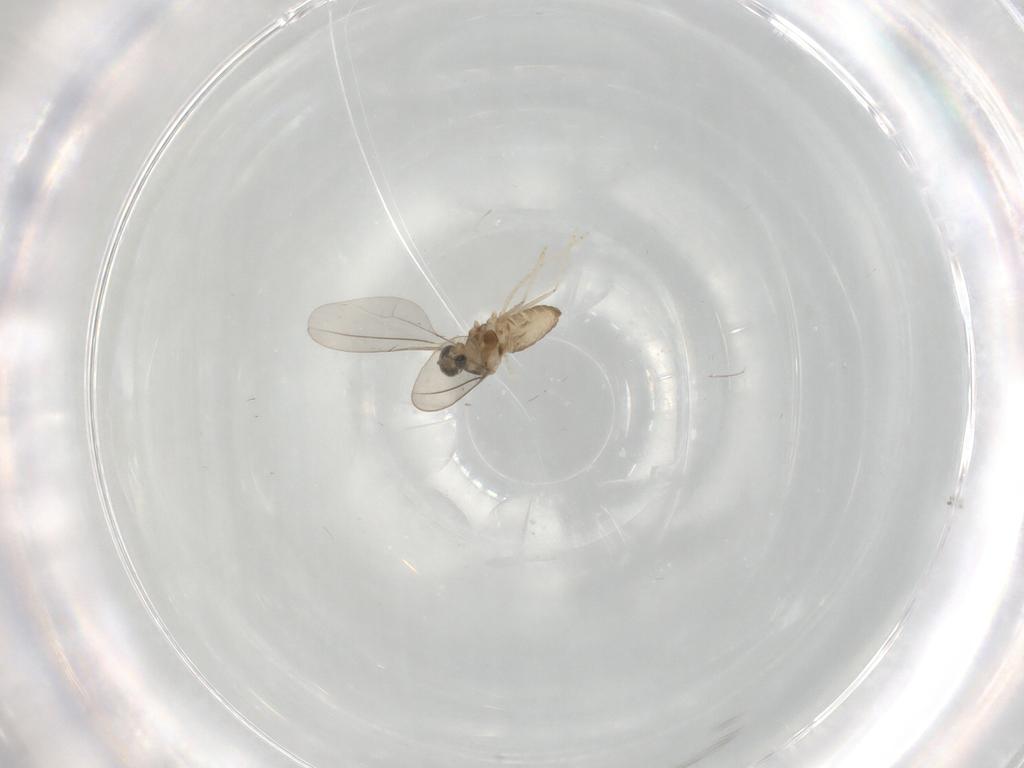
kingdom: Animalia
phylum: Arthropoda
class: Insecta
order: Diptera
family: Cecidomyiidae
